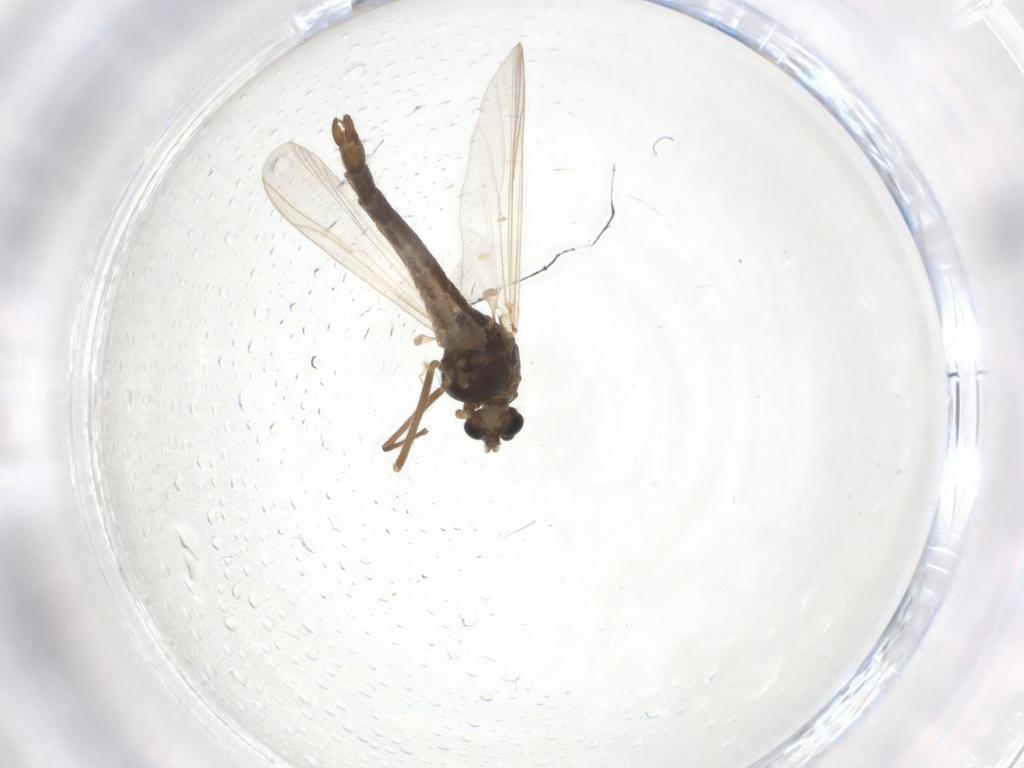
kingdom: Animalia
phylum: Arthropoda
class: Insecta
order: Diptera
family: Chironomidae
